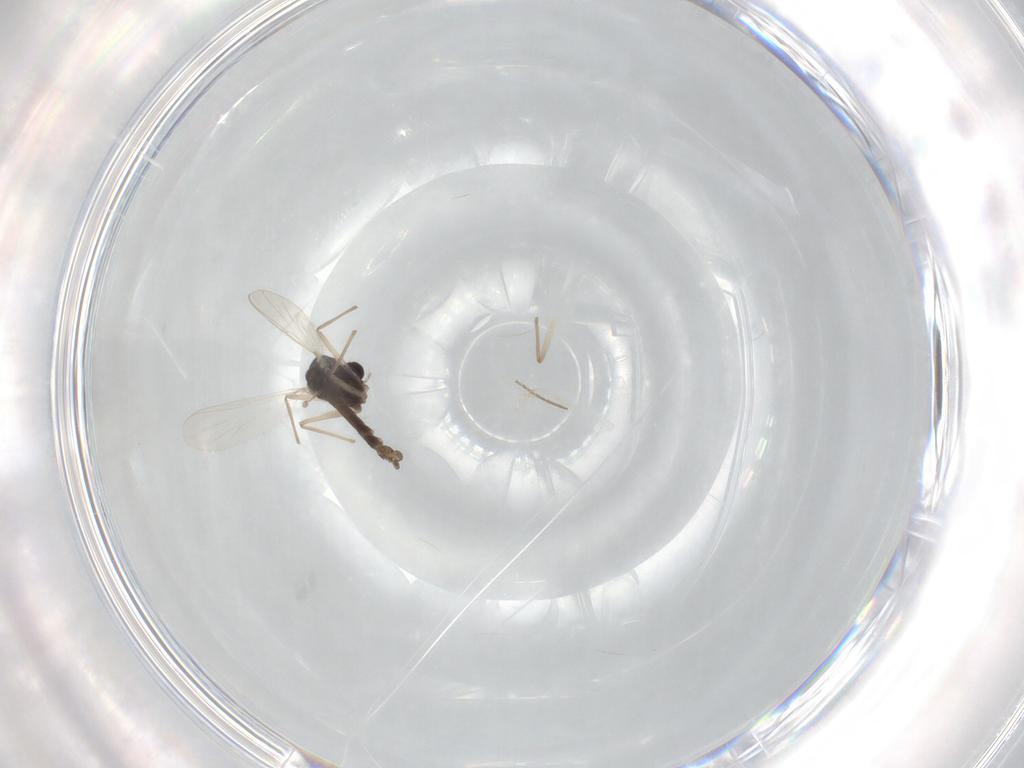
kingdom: Animalia
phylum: Arthropoda
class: Insecta
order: Diptera
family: Chironomidae
